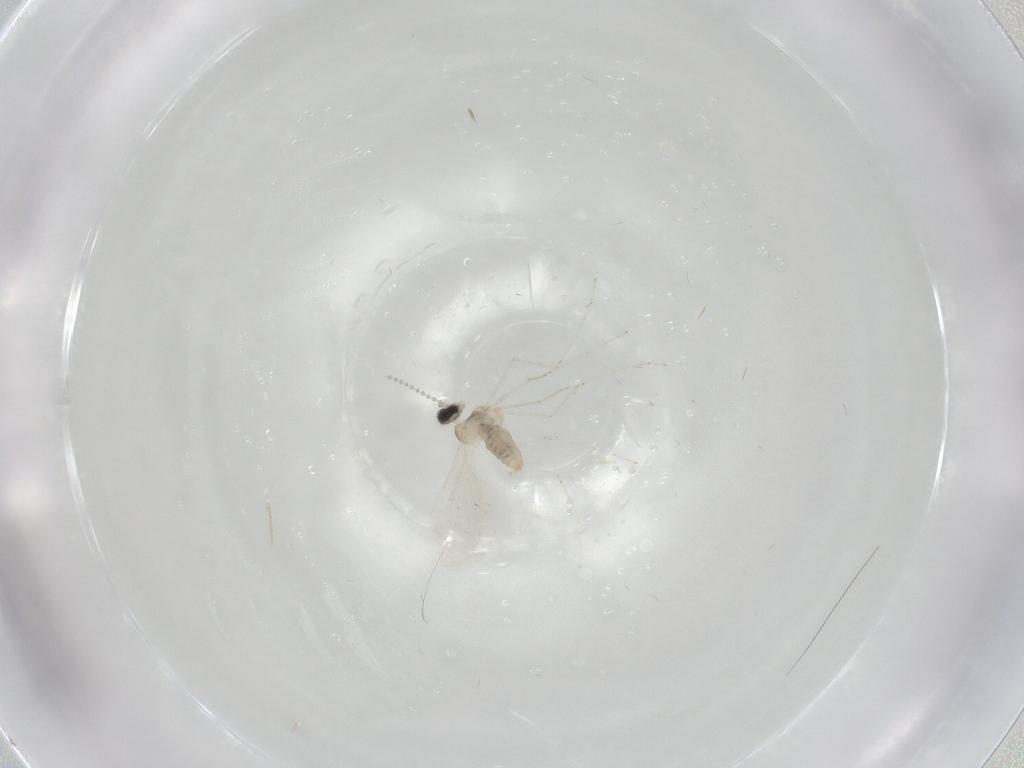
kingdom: Animalia
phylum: Arthropoda
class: Insecta
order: Diptera
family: Cecidomyiidae
